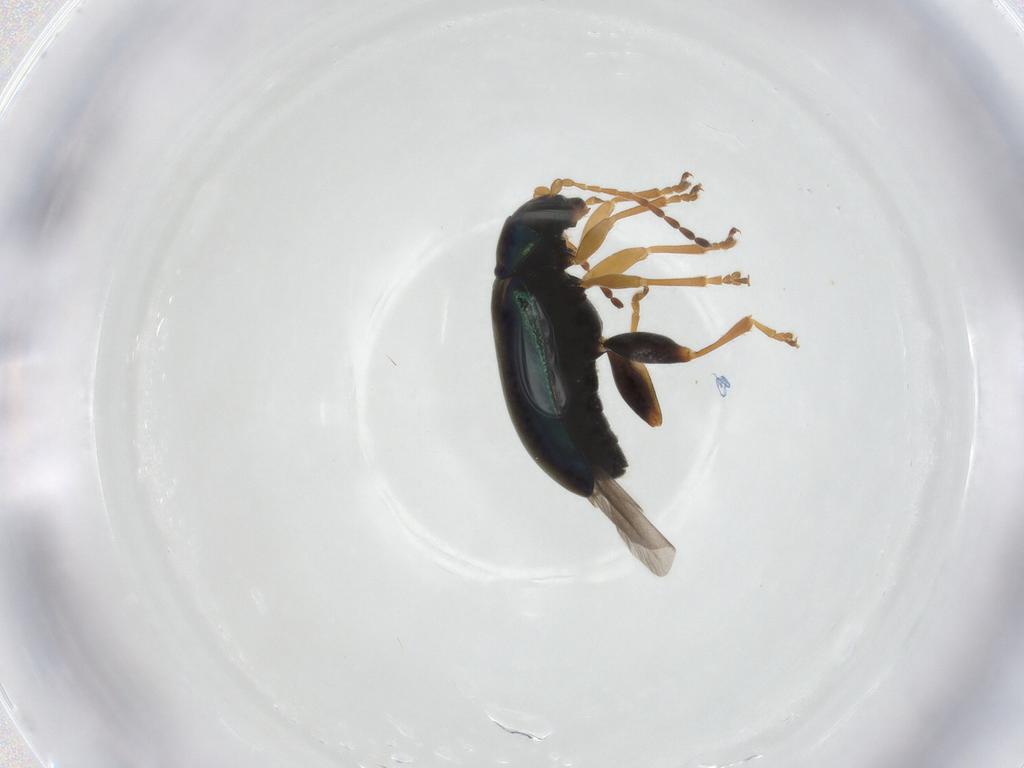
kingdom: Animalia
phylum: Arthropoda
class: Insecta
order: Coleoptera
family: Chrysomelidae
